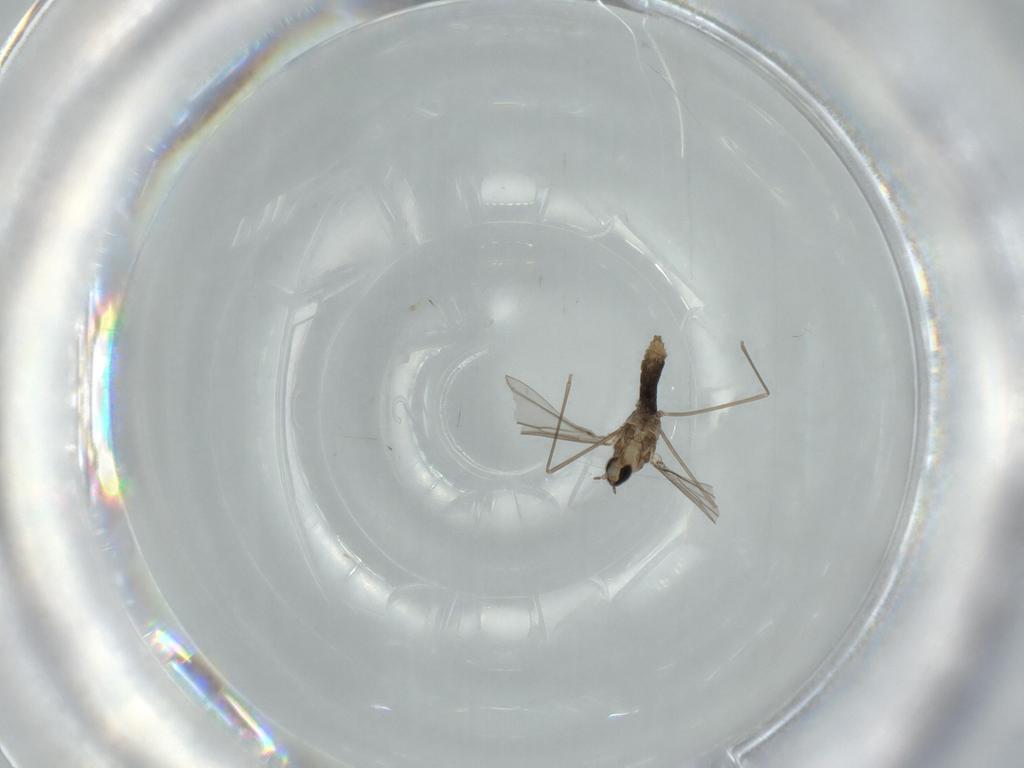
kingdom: Animalia
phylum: Arthropoda
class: Insecta
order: Diptera
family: Cecidomyiidae
